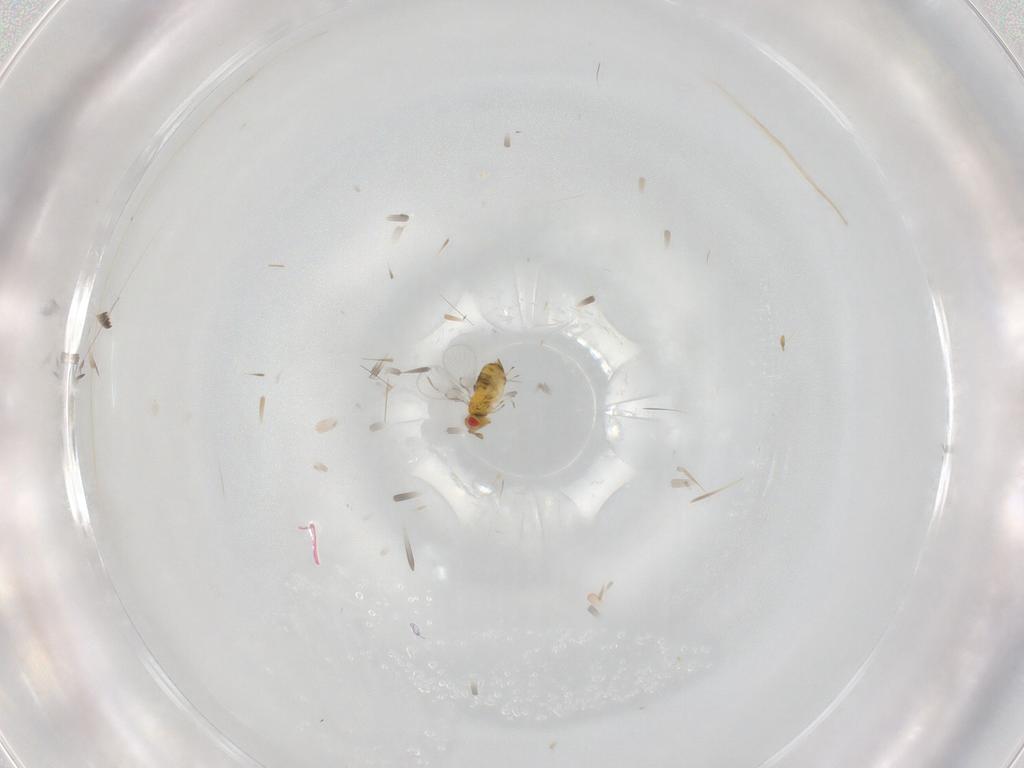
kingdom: Animalia
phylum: Arthropoda
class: Insecta
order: Hymenoptera
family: Trichogrammatidae
